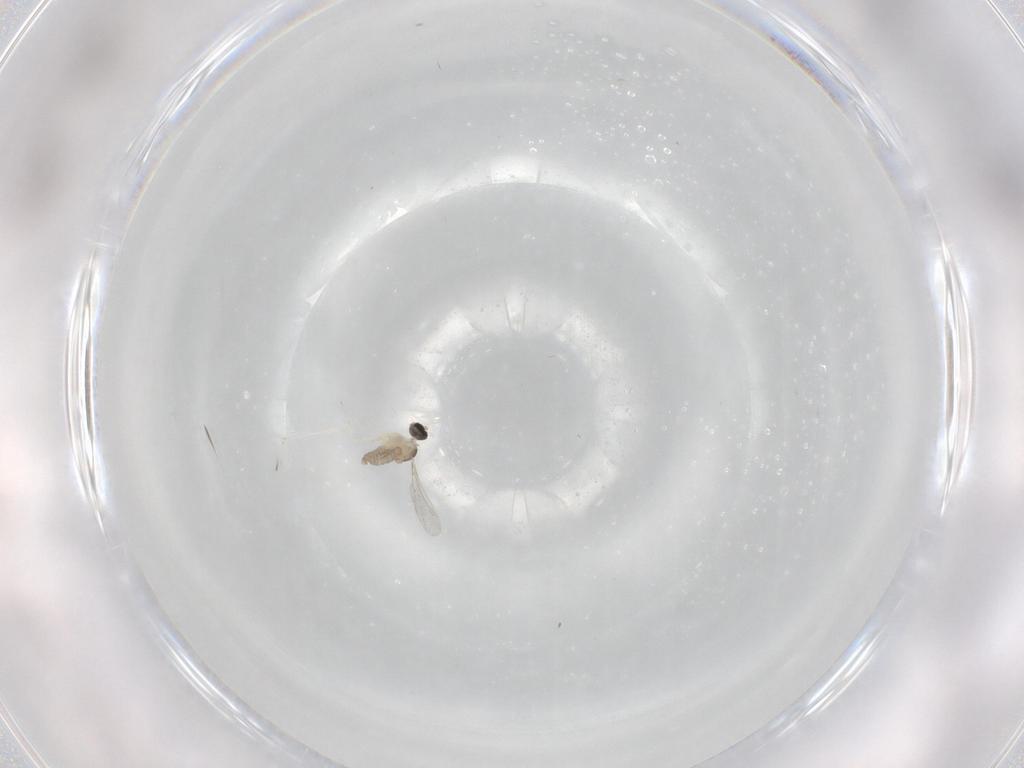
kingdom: Animalia
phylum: Arthropoda
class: Insecta
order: Diptera
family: Cecidomyiidae
